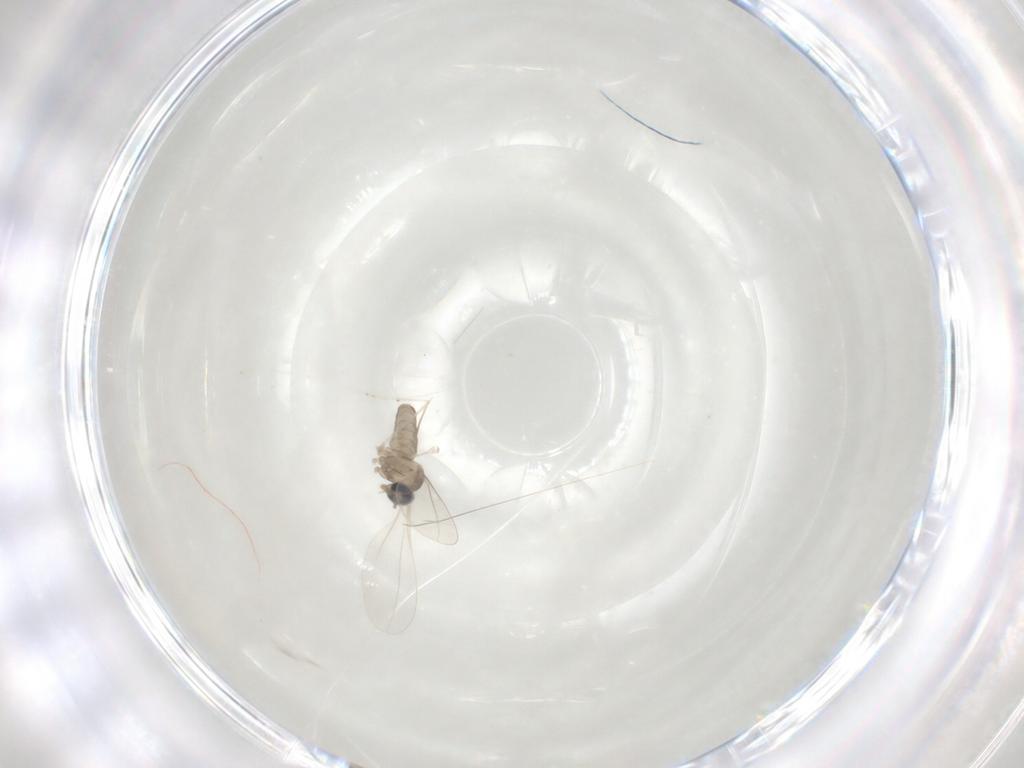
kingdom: Animalia
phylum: Arthropoda
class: Insecta
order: Diptera
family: Cecidomyiidae
